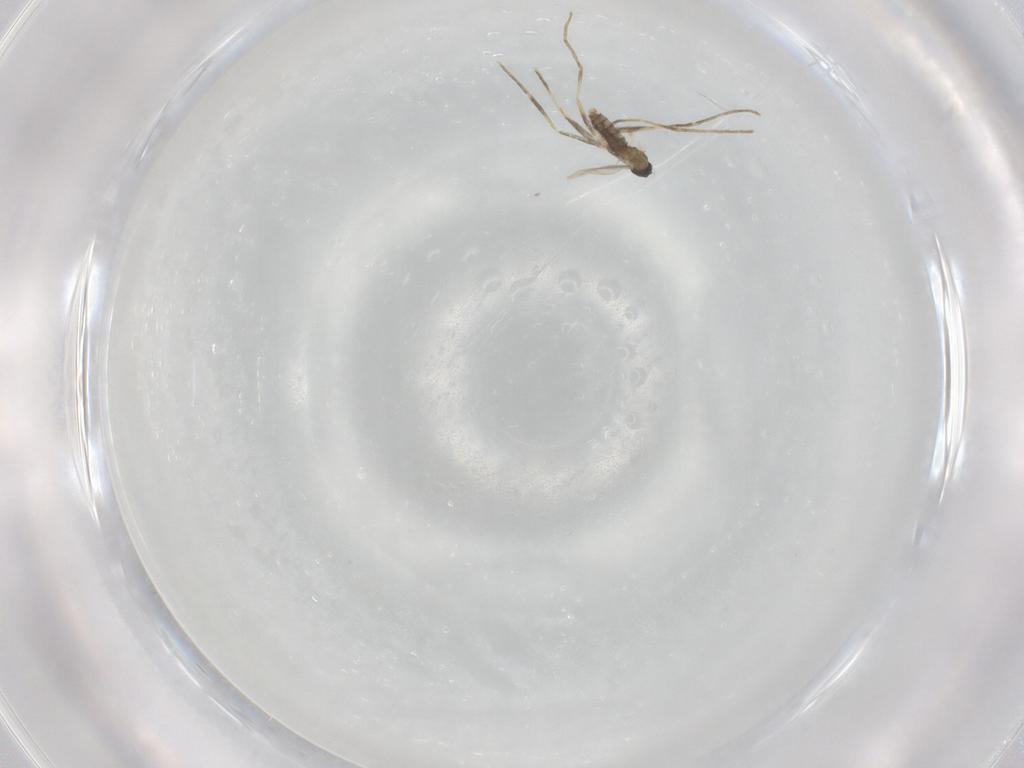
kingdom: Animalia
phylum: Arthropoda
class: Insecta
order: Diptera
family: Cecidomyiidae
